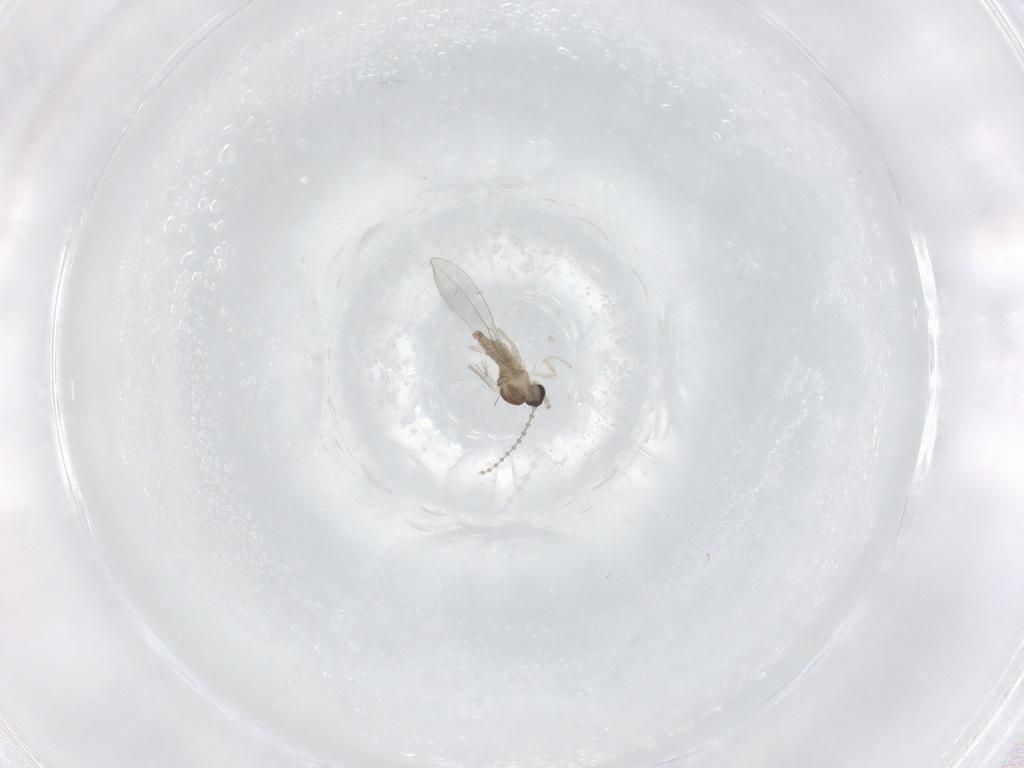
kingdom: Animalia
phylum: Arthropoda
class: Insecta
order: Diptera
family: Cecidomyiidae
